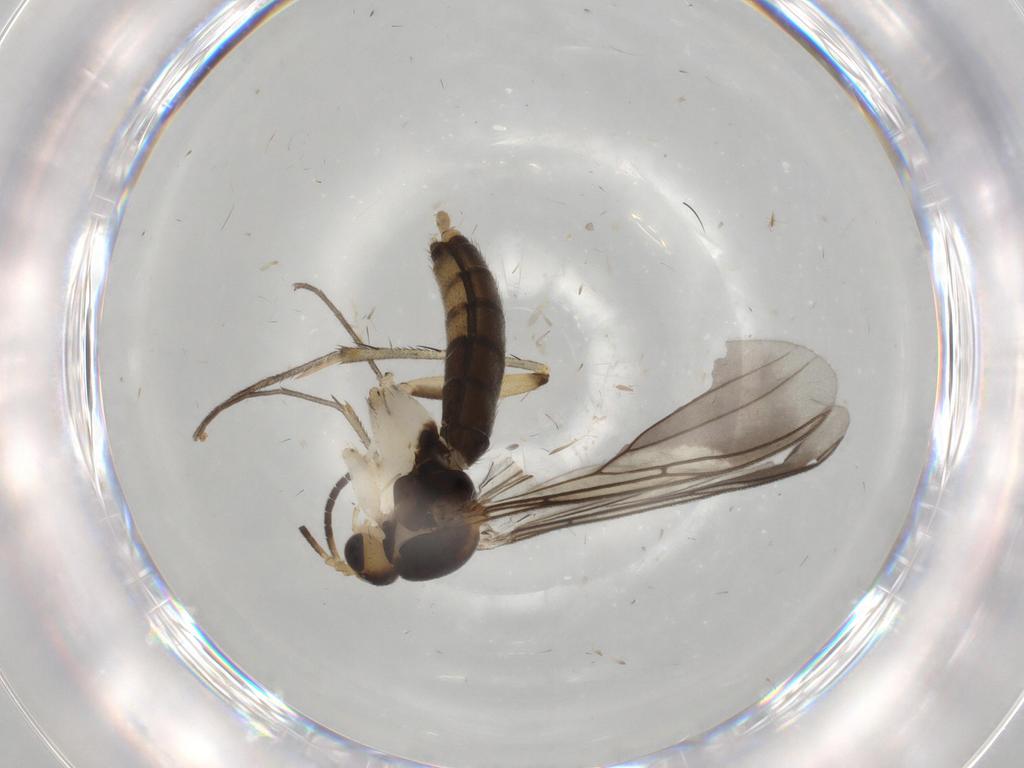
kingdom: Animalia
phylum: Arthropoda
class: Insecta
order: Diptera
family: Mycetophilidae
